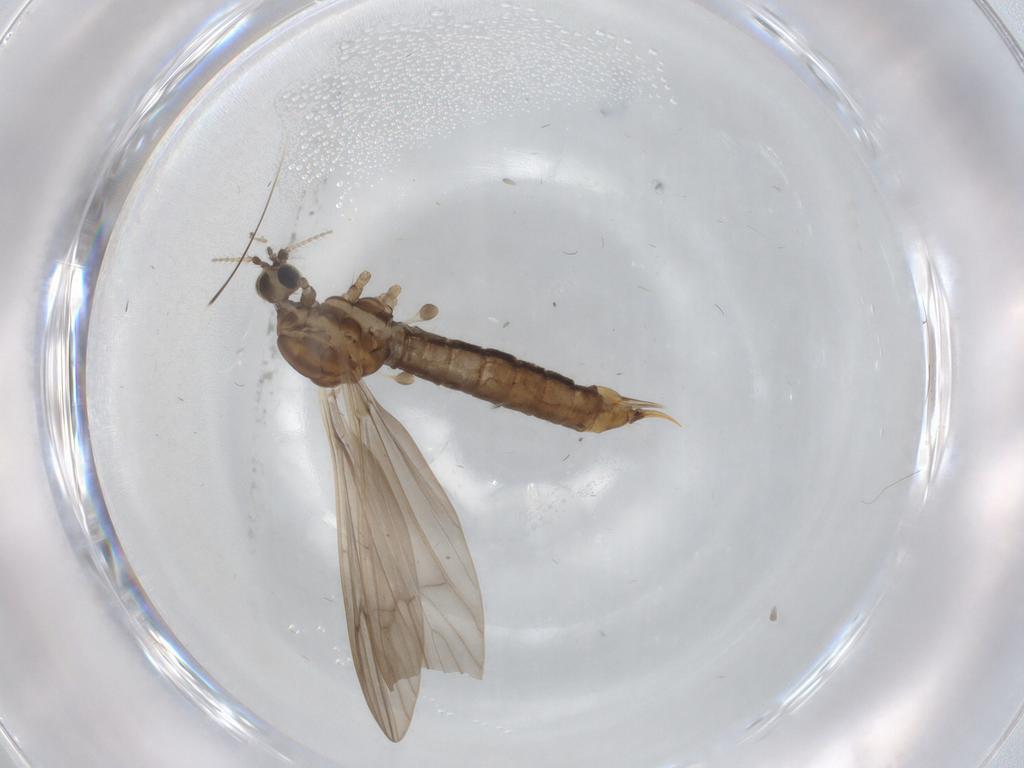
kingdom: Animalia
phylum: Arthropoda
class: Insecta
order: Diptera
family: Limoniidae
